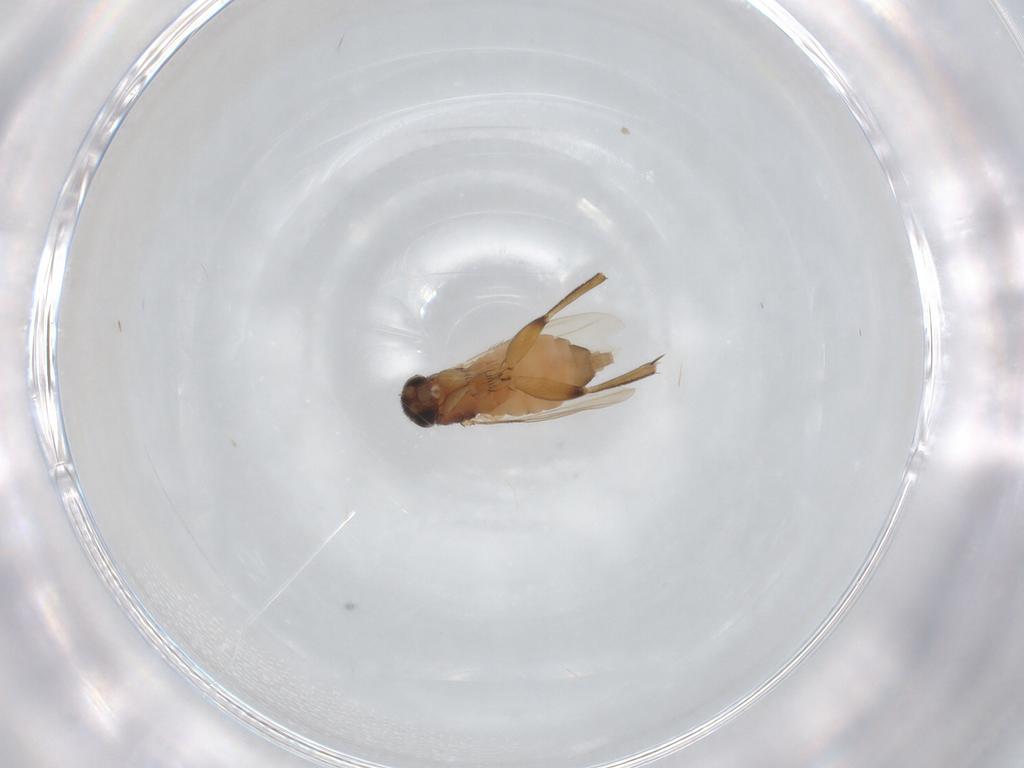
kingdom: Animalia
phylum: Arthropoda
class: Insecta
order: Diptera
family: Phoridae
